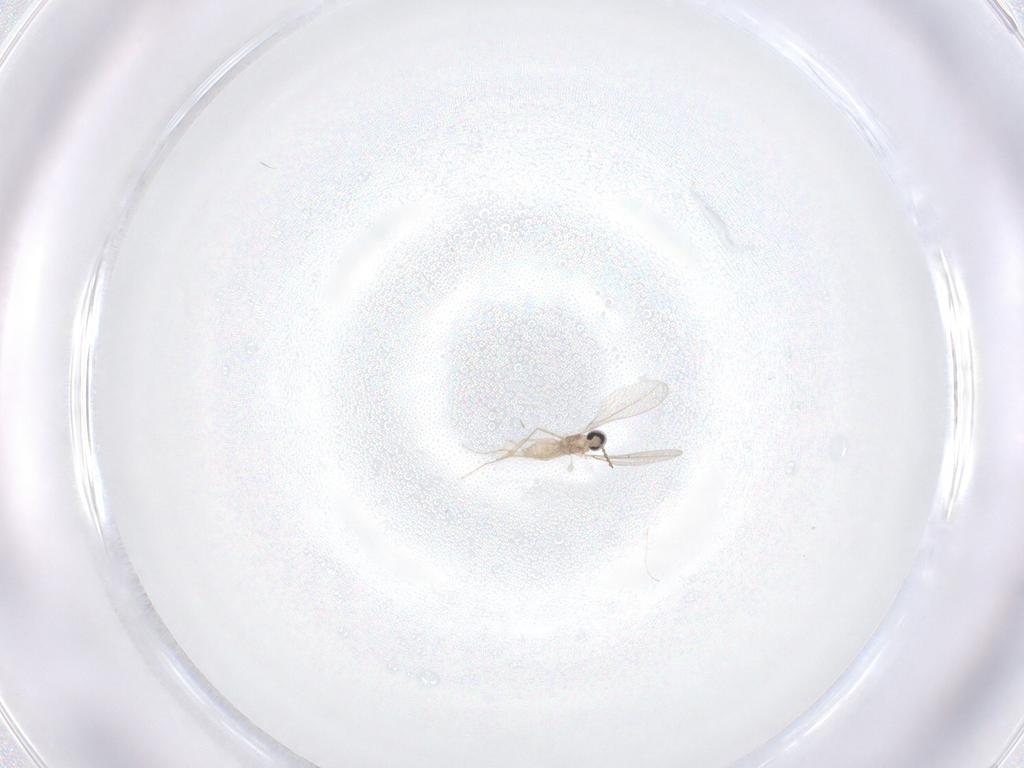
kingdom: Animalia
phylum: Arthropoda
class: Insecta
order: Diptera
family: Cecidomyiidae
